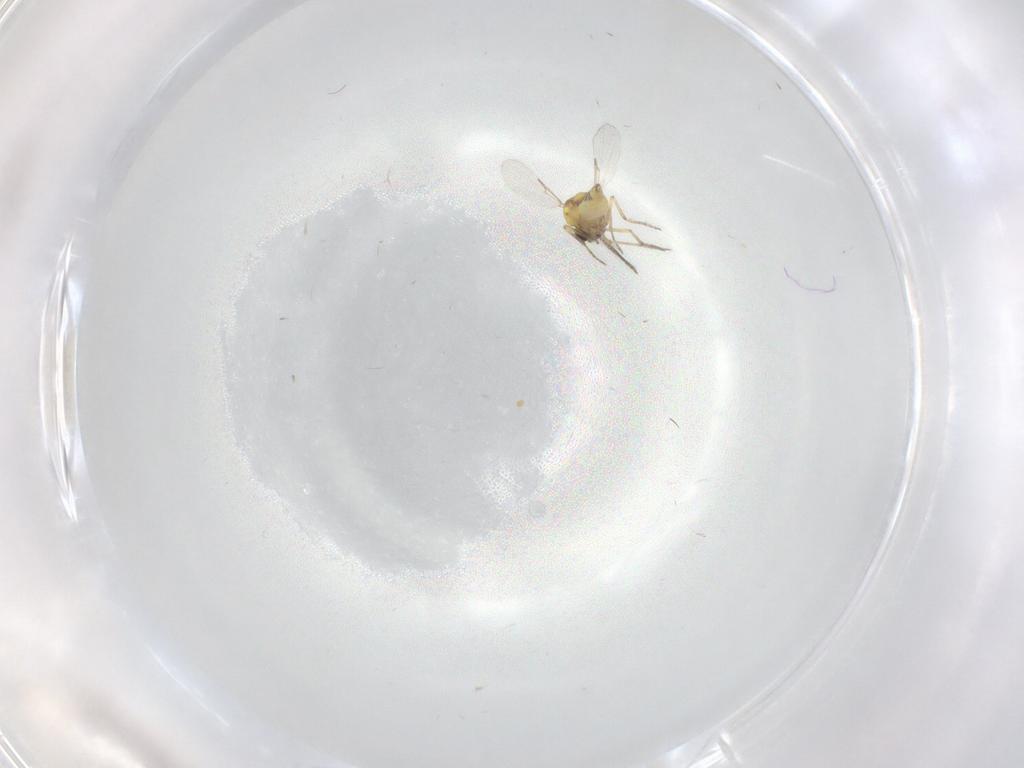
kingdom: Animalia
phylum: Arthropoda
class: Insecta
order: Diptera
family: Ceratopogonidae
